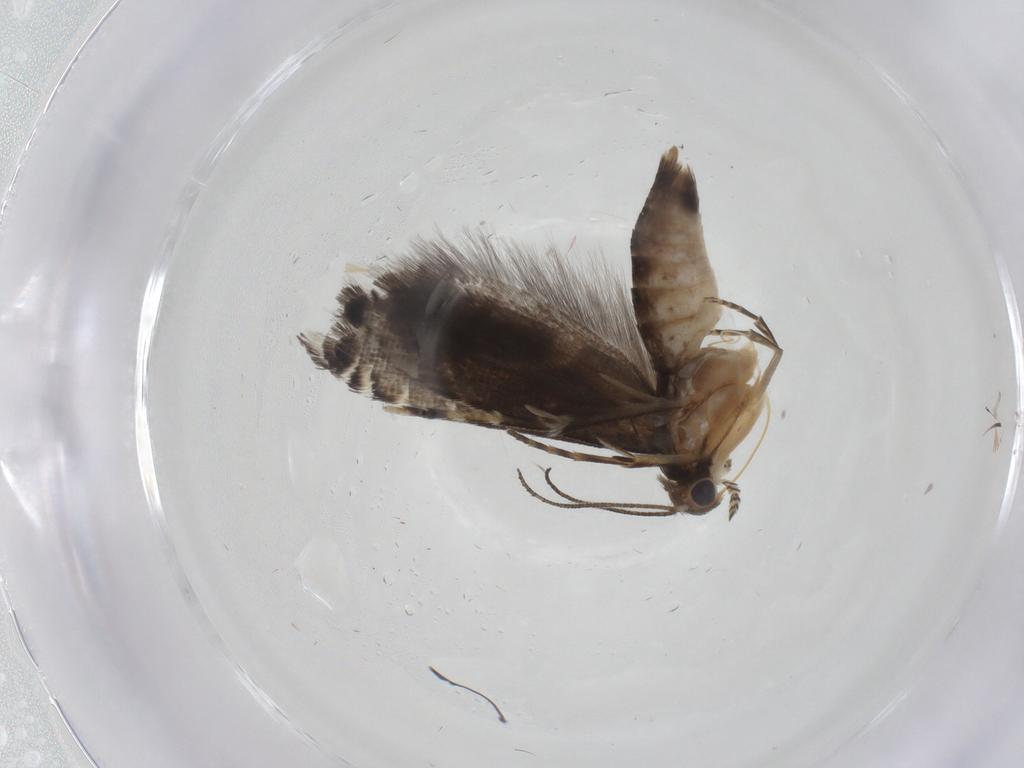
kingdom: Animalia
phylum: Arthropoda
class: Insecta
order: Lepidoptera
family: Glyphipterigidae
